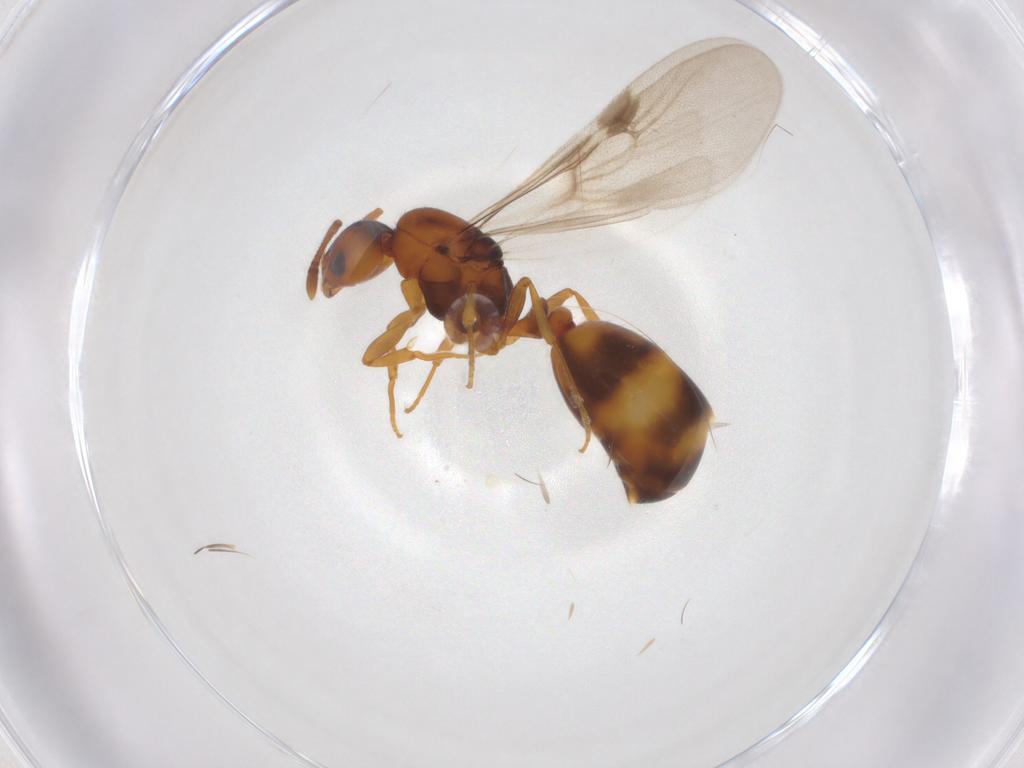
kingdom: Animalia
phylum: Arthropoda
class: Insecta
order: Hymenoptera
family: Formicidae
